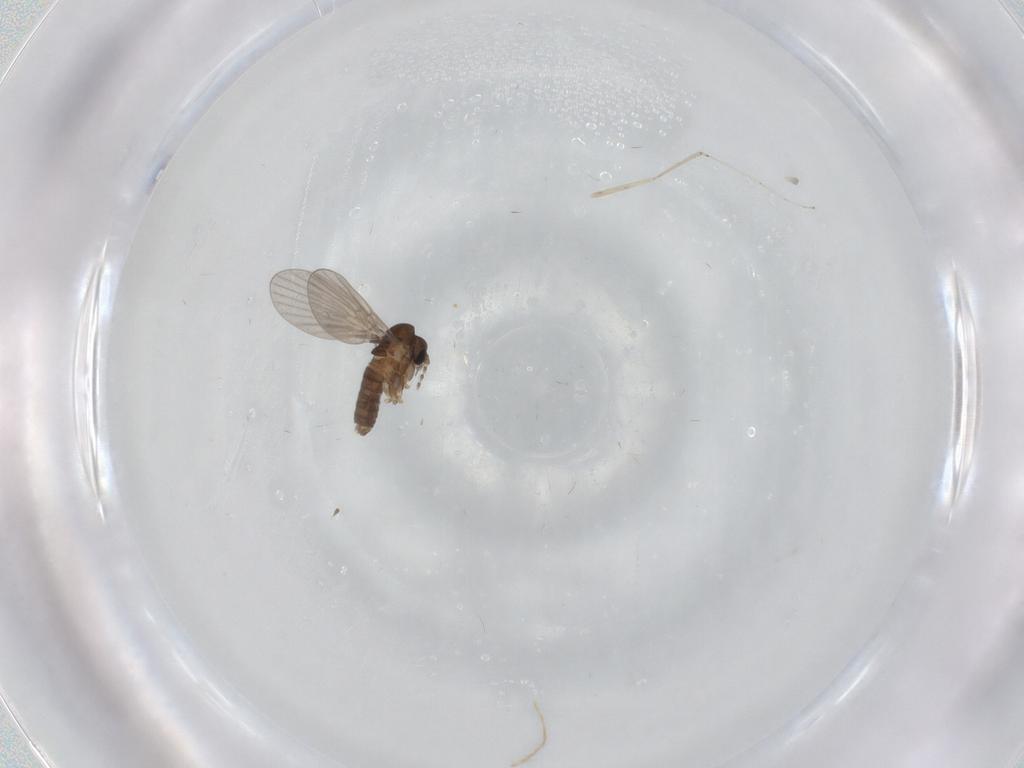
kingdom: Animalia
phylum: Arthropoda
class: Insecta
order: Diptera
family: Cecidomyiidae
